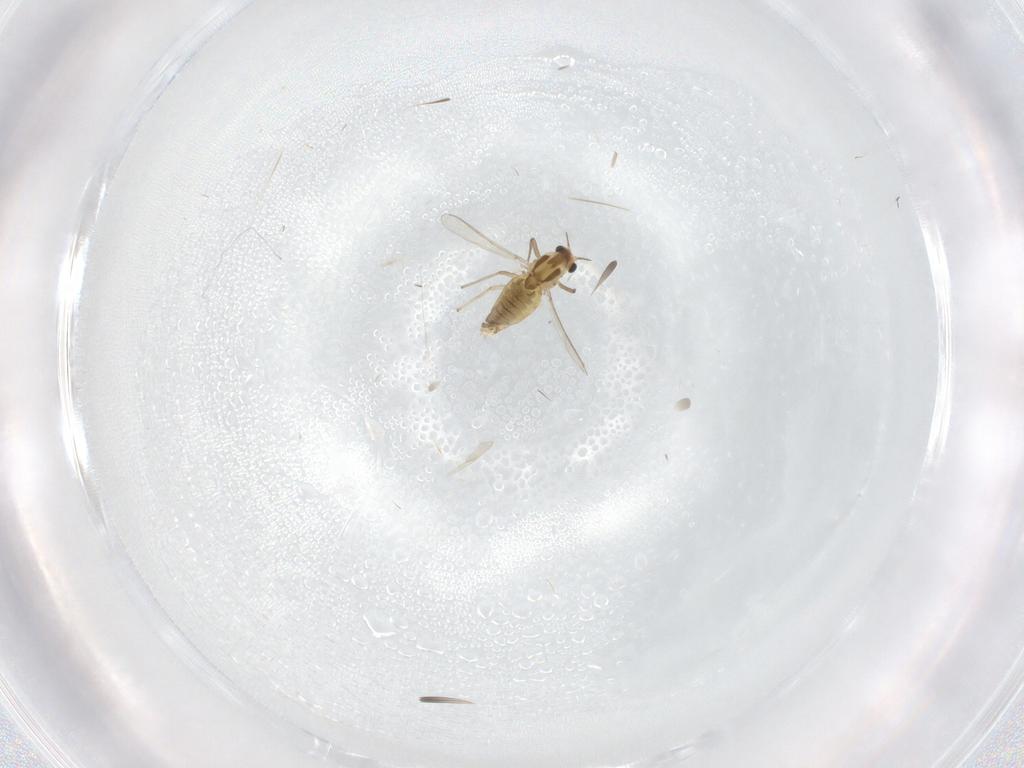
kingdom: Animalia
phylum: Arthropoda
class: Insecta
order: Diptera
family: Chironomidae
